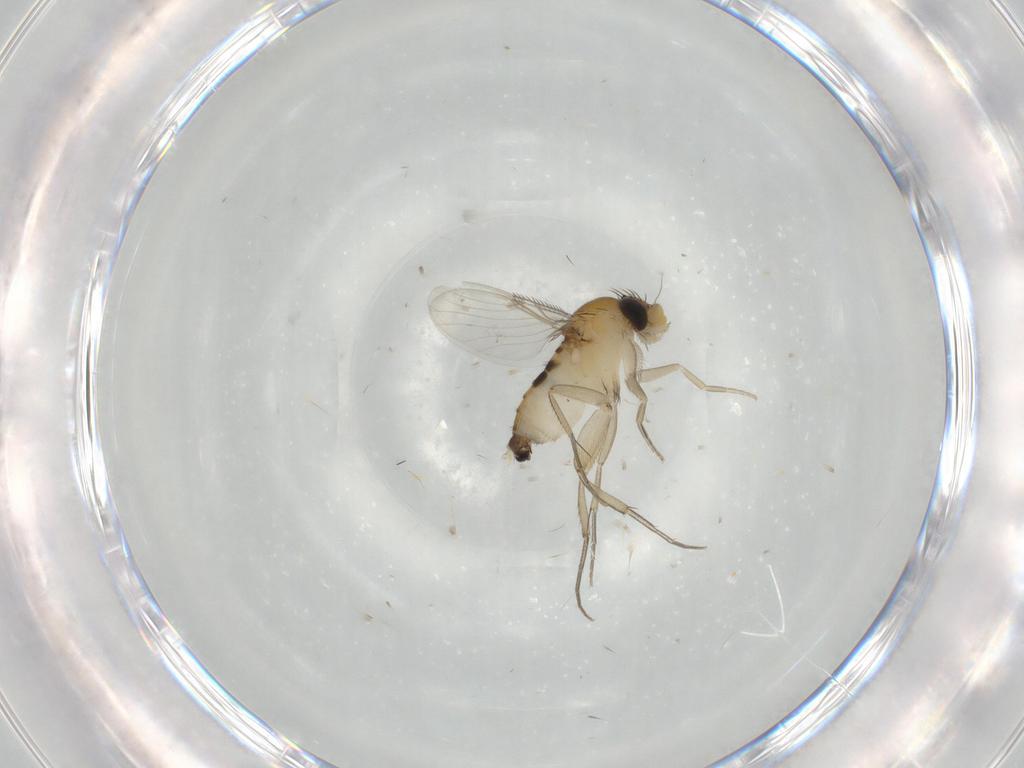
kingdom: Animalia
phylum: Arthropoda
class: Insecta
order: Diptera
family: Phoridae
